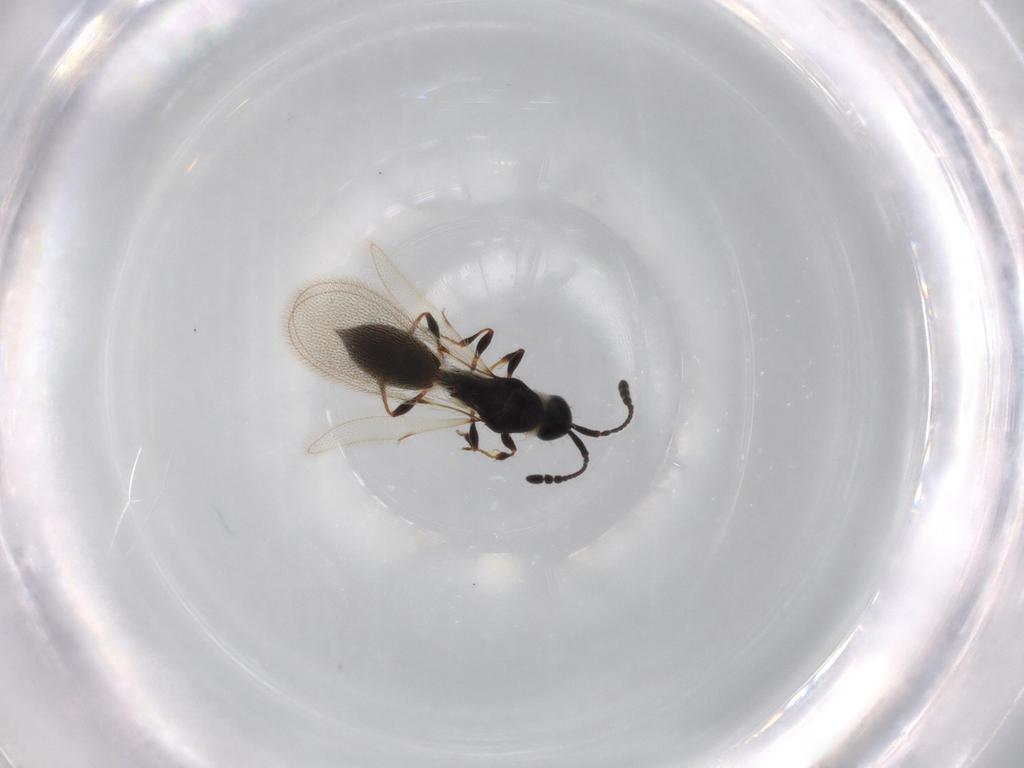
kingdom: Animalia
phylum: Arthropoda
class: Insecta
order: Hymenoptera
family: Diapriidae
